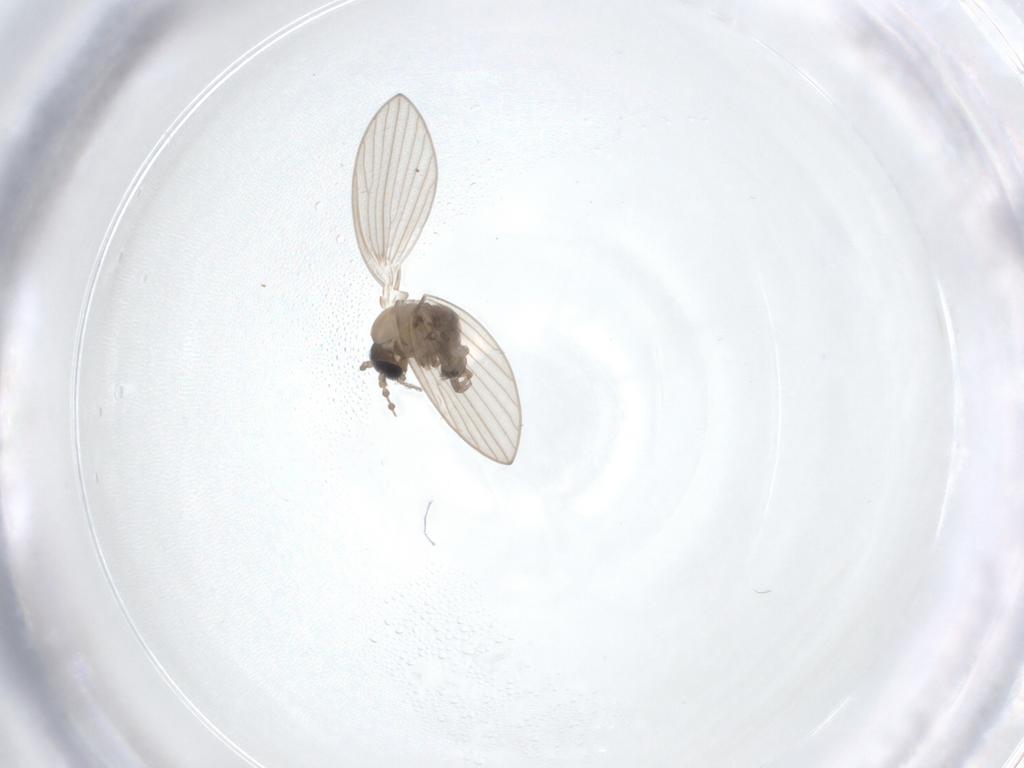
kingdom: Animalia
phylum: Arthropoda
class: Insecta
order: Diptera
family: Psychodidae
